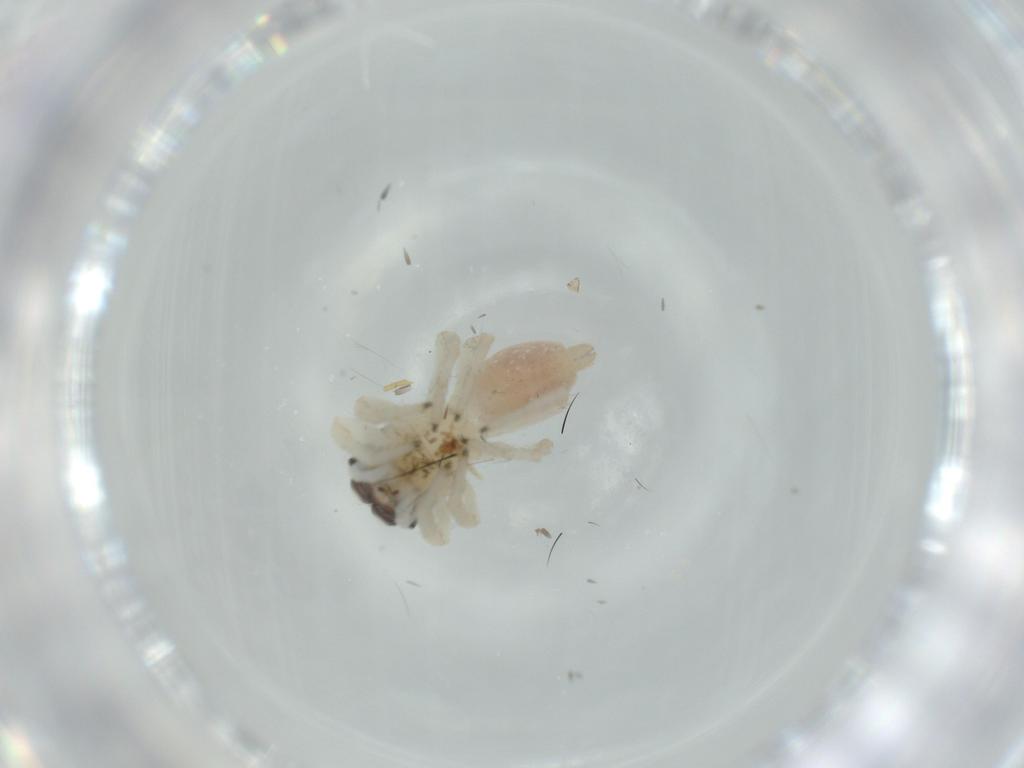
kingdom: Animalia
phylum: Arthropoda
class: Arachnida
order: Araneae
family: Salticidae
